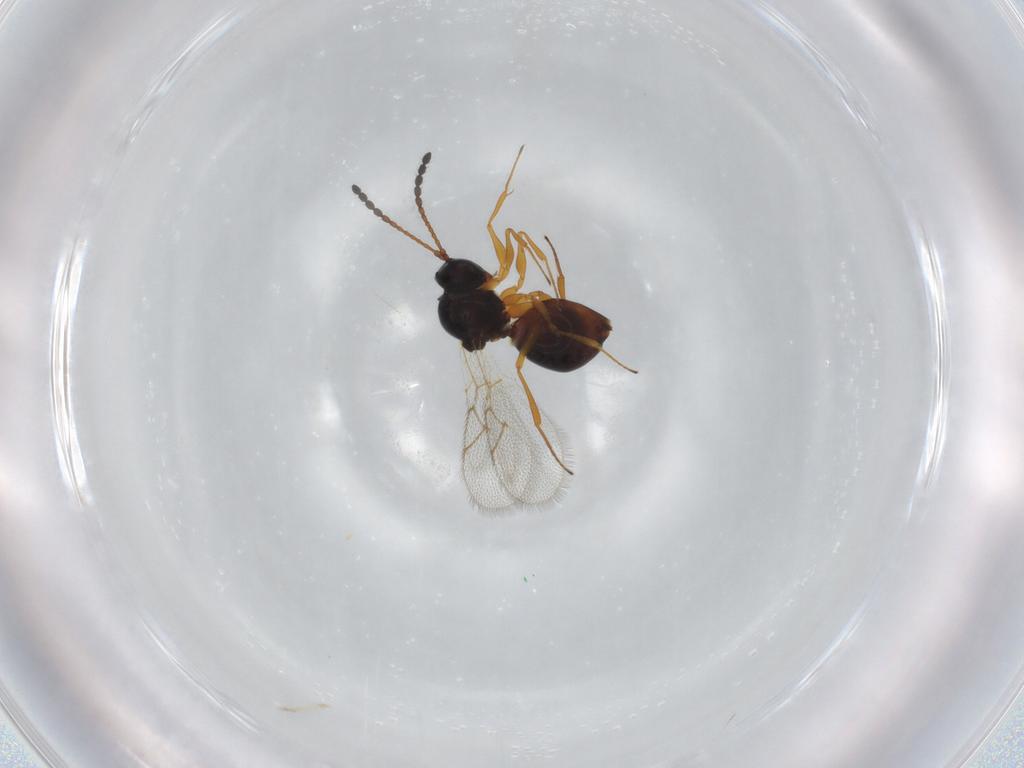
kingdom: Animalia
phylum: Arthropoda
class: Insecta
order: Hymenoptera
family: Figitidae
